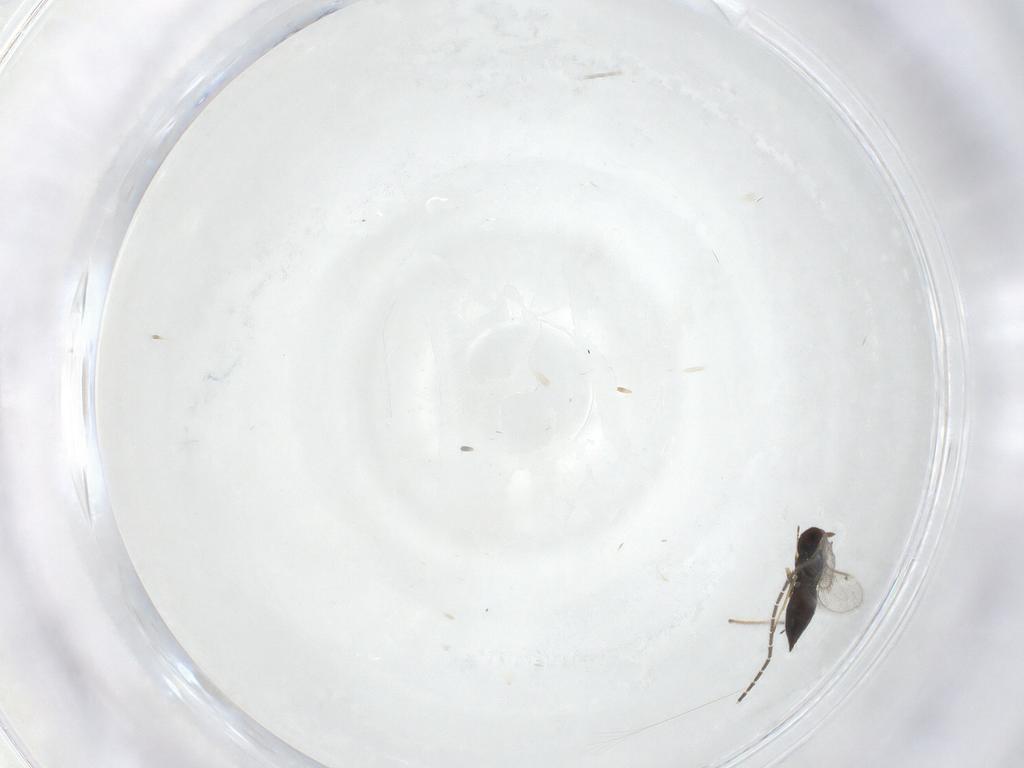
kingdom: Animalia
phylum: Arthropoda
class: Insecta
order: Diptera
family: Sciaridae
